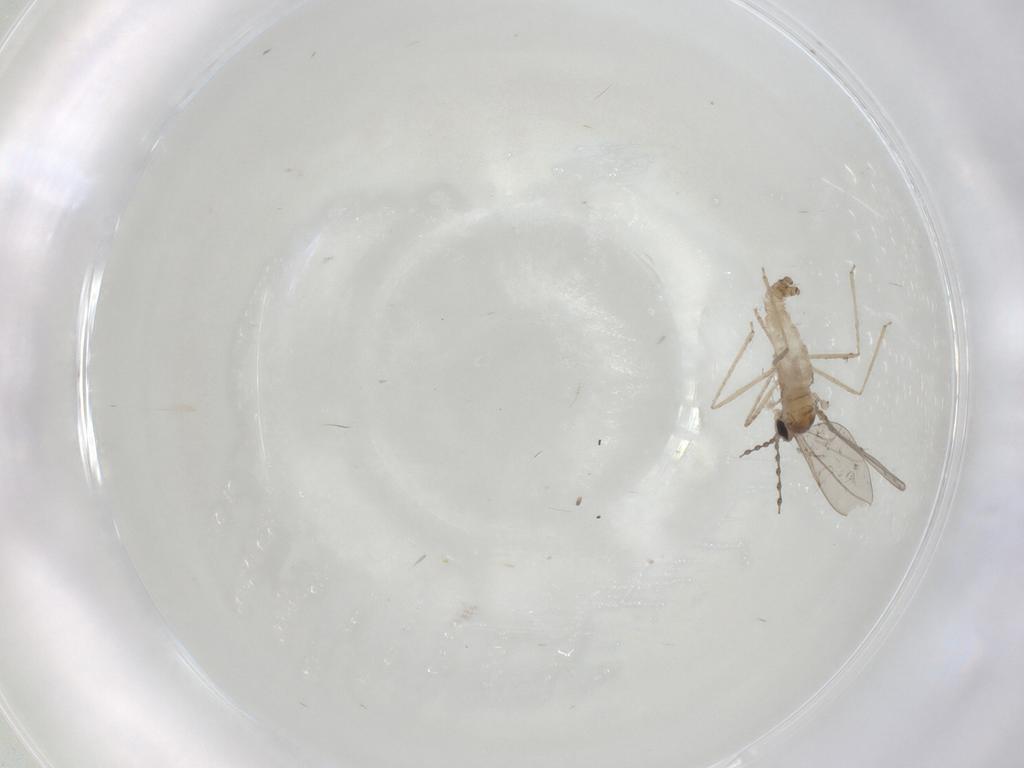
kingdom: Animalia
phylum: Arthropoda
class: Insecta
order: Diptera
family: Cecidomyiidae
